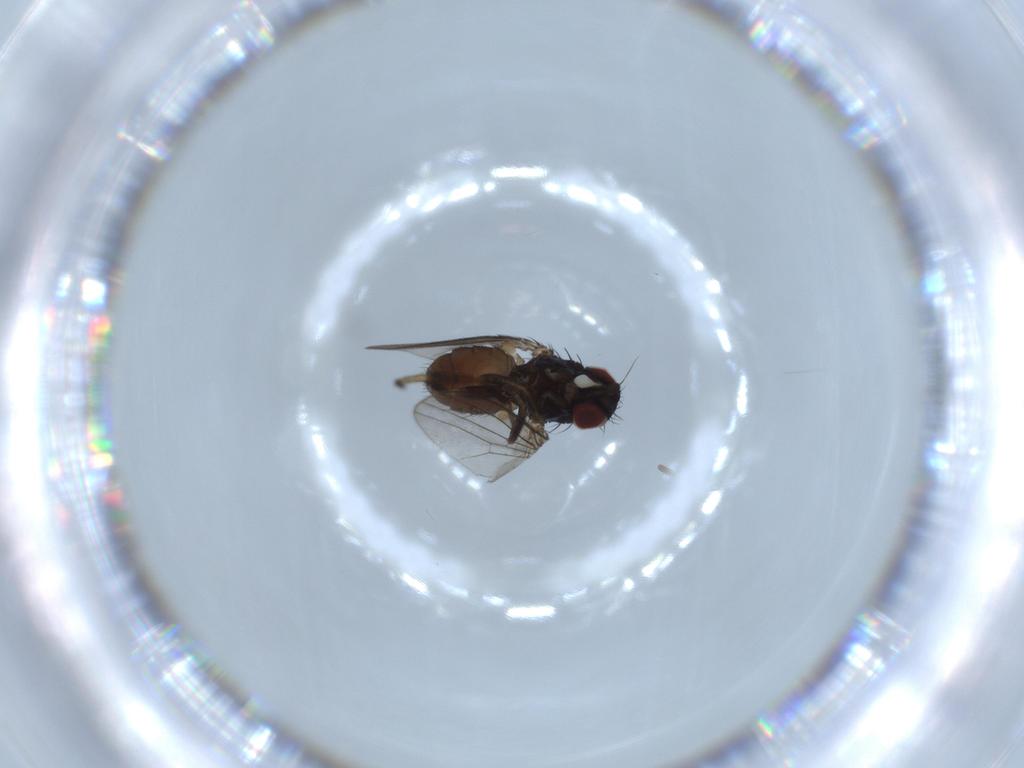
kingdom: Animalia
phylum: Arthropoda
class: Insecta
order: Diptera
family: Milichiidae
